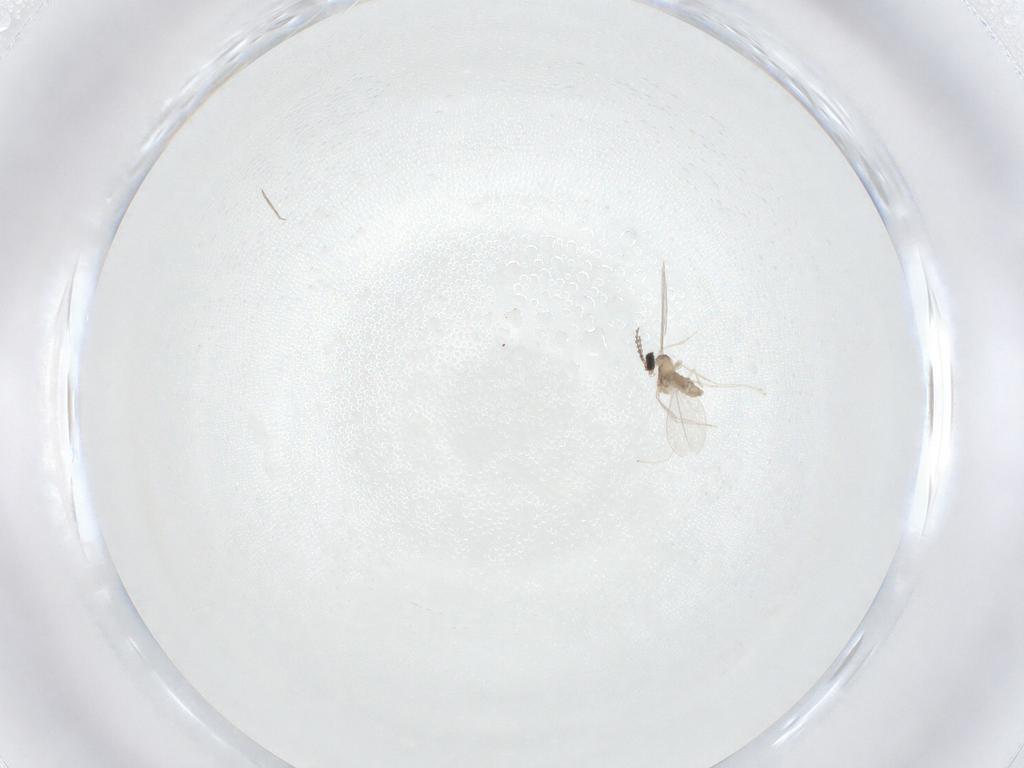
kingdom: Animalia
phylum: Arthropoda
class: Insecta
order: Diptera
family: Cecidomyiidae
